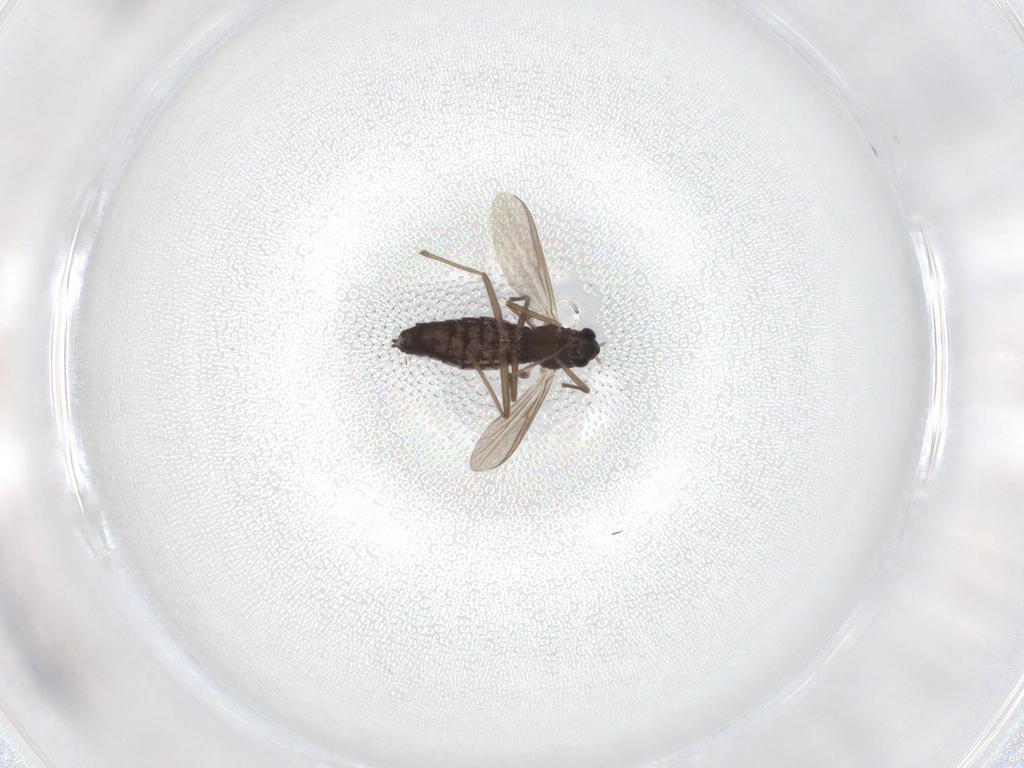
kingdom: Animalia
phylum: Arthropoda
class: Insecta
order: Diptera
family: Chironomidae
